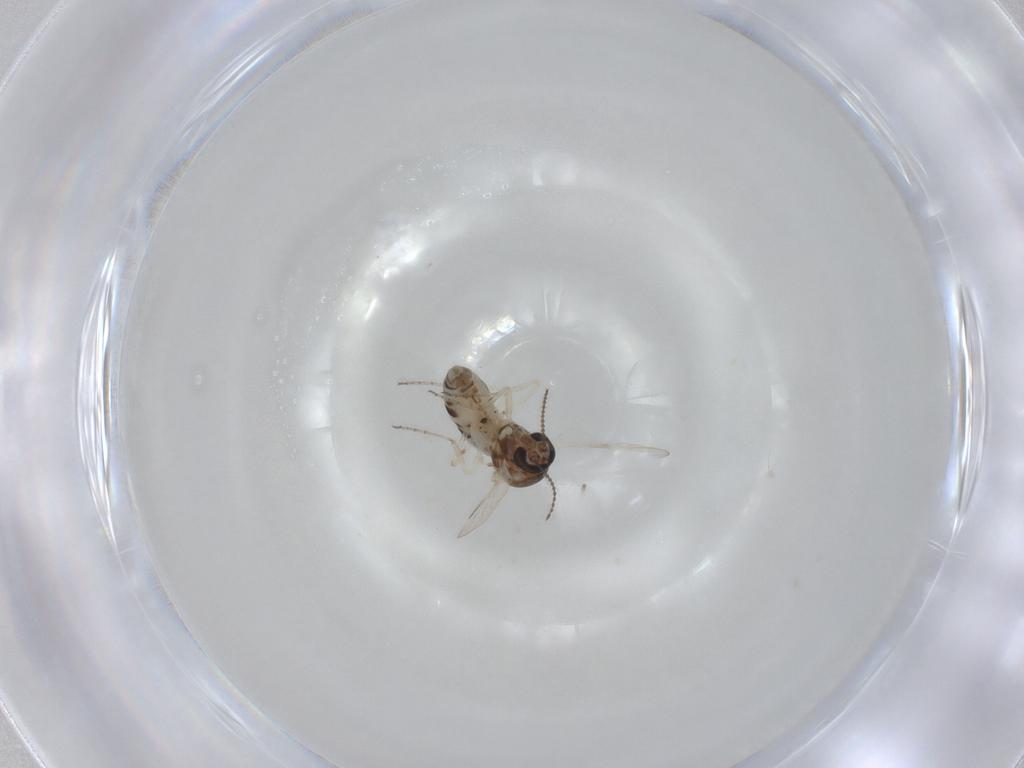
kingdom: Animalia
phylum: Arthropoda
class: Insecta
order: Diptera
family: Ceratopogonidae
